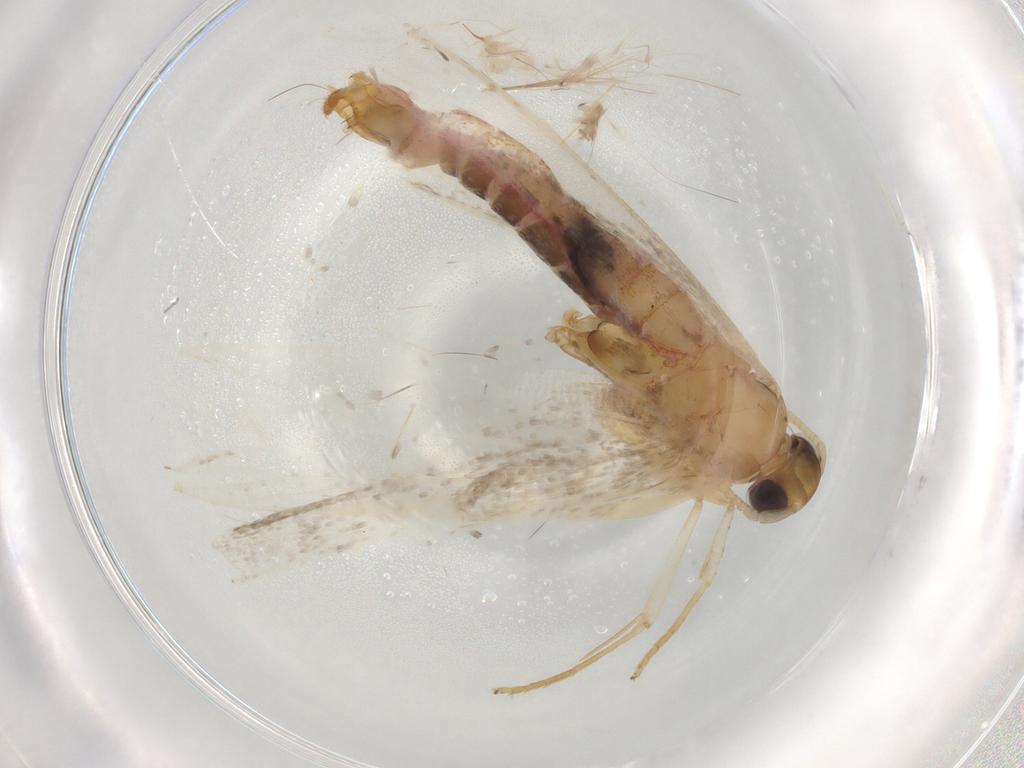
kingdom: Animalia
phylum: Arthropoda
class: Insecta
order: Lepidoptera
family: Lecithoceridae
